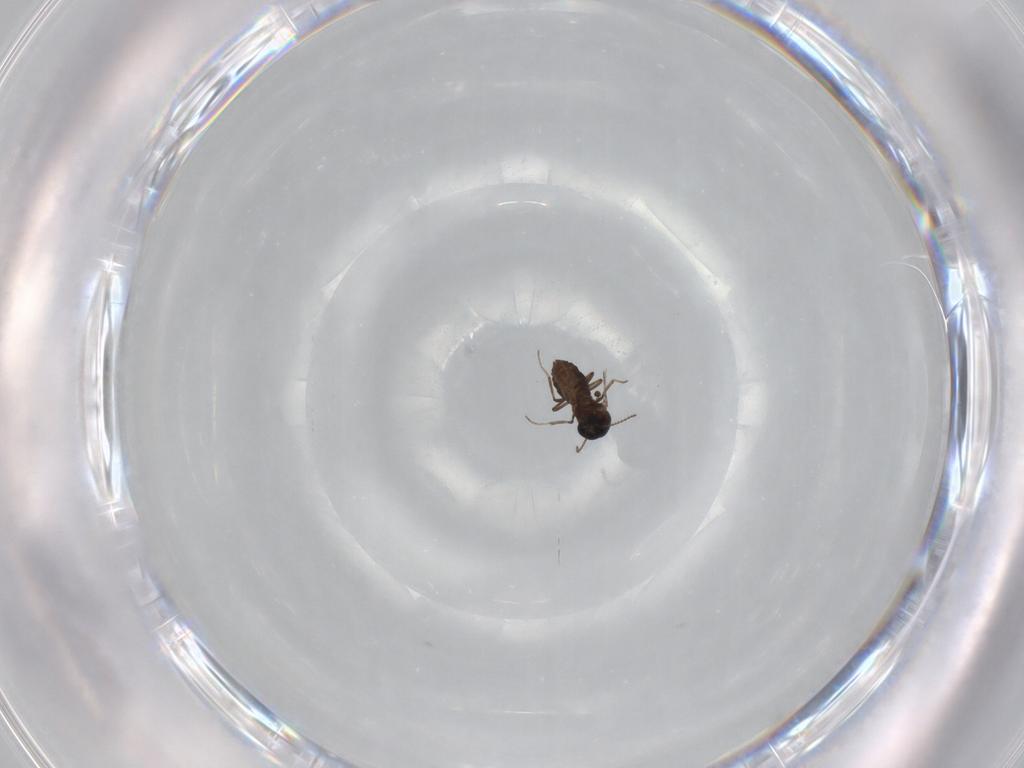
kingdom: Animalia
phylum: Arthropoda
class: Insecta
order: Diptera
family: Ceratopogonidae
